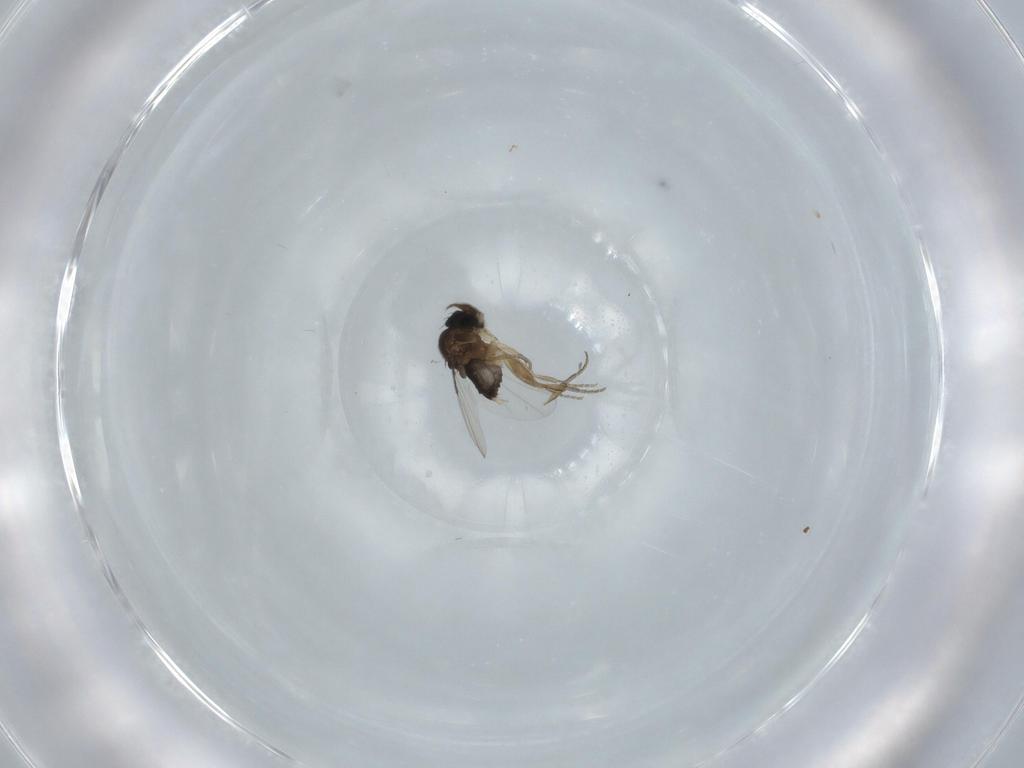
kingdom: Animalia
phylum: Arthropoda
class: Insecta
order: Diptera
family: Phoridae
